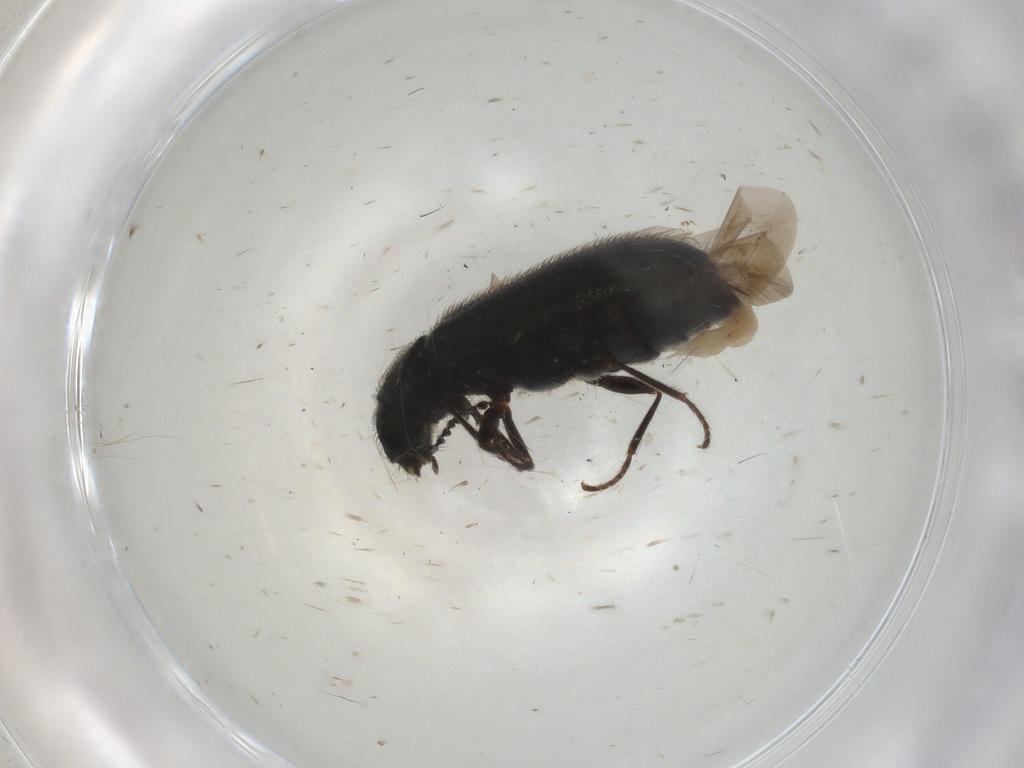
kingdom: Animalia
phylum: Arthropoda
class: Insecta
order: Coleoptera
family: Melyridae
